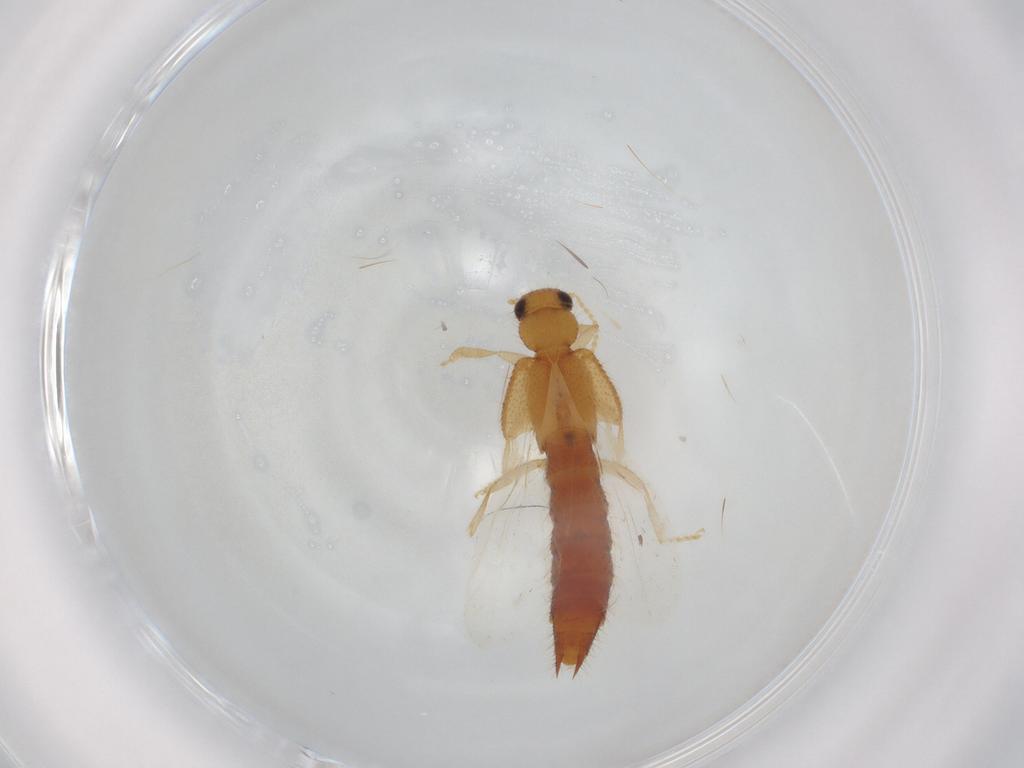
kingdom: Animalia
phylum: Arthropoda
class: Insecta
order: Coleoptera
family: Staphylinidae
